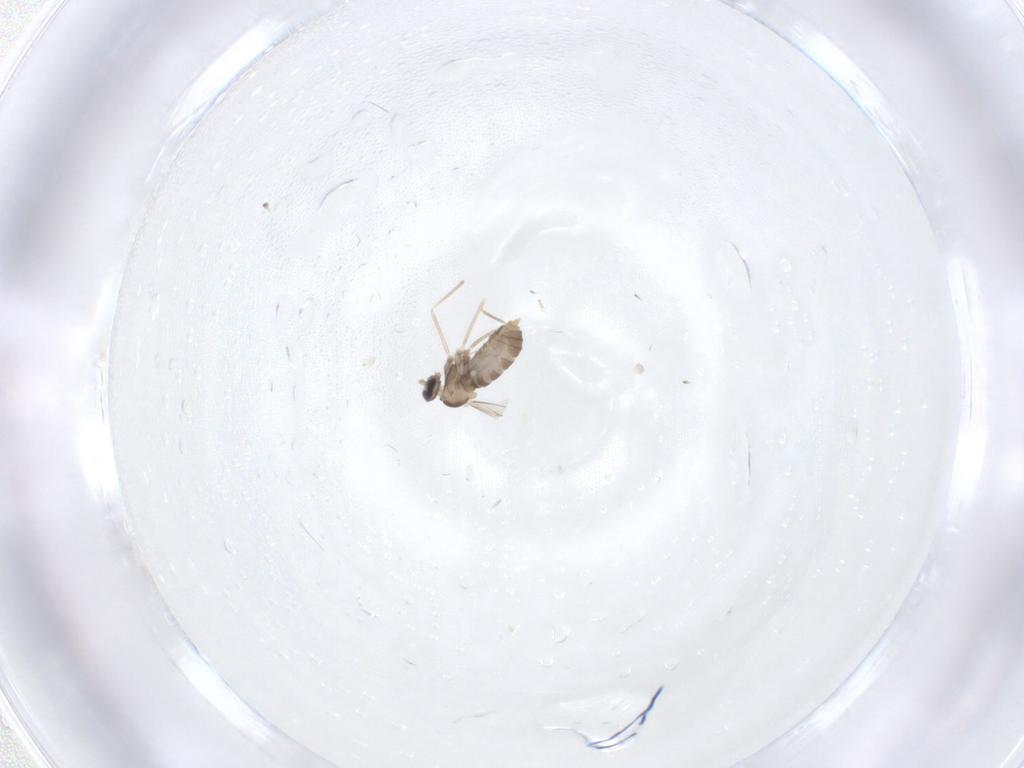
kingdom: Animalia
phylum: Arthropoda
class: Insecta
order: Diptera
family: Cecidomyiidae
